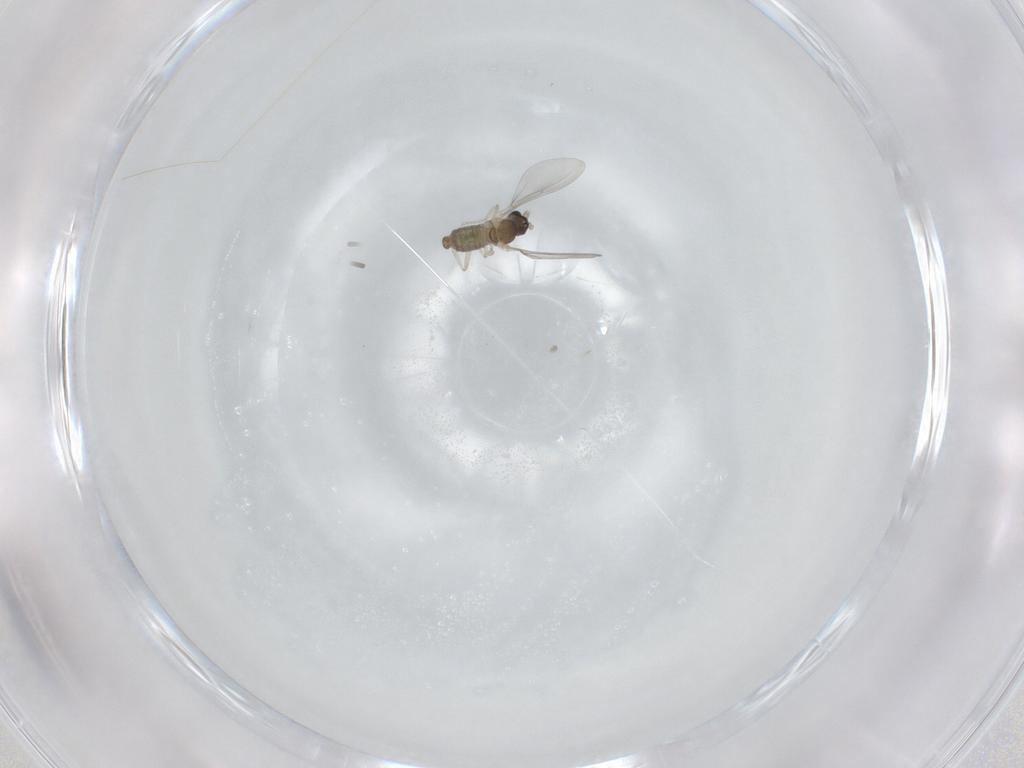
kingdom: Animalia
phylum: Arthropoda
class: Insecta
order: Diptera
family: Cecidomyiidae
